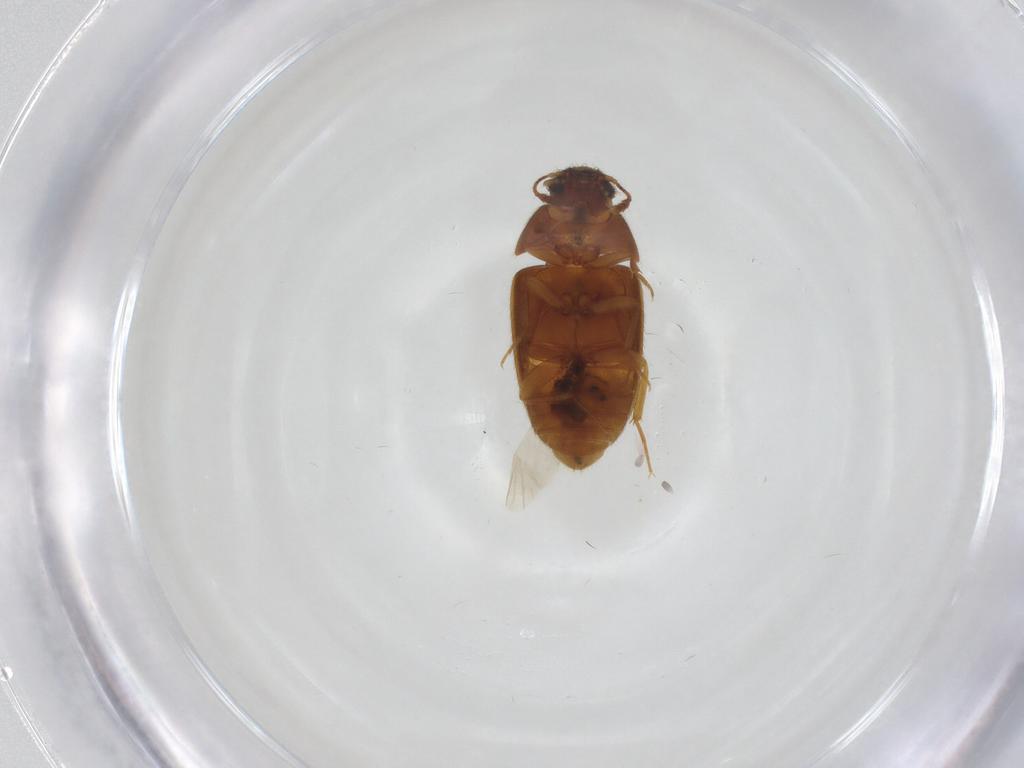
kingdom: Animalia
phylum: Arthropoda
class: Insecta
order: Coleoptera
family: Mycetophagidae
